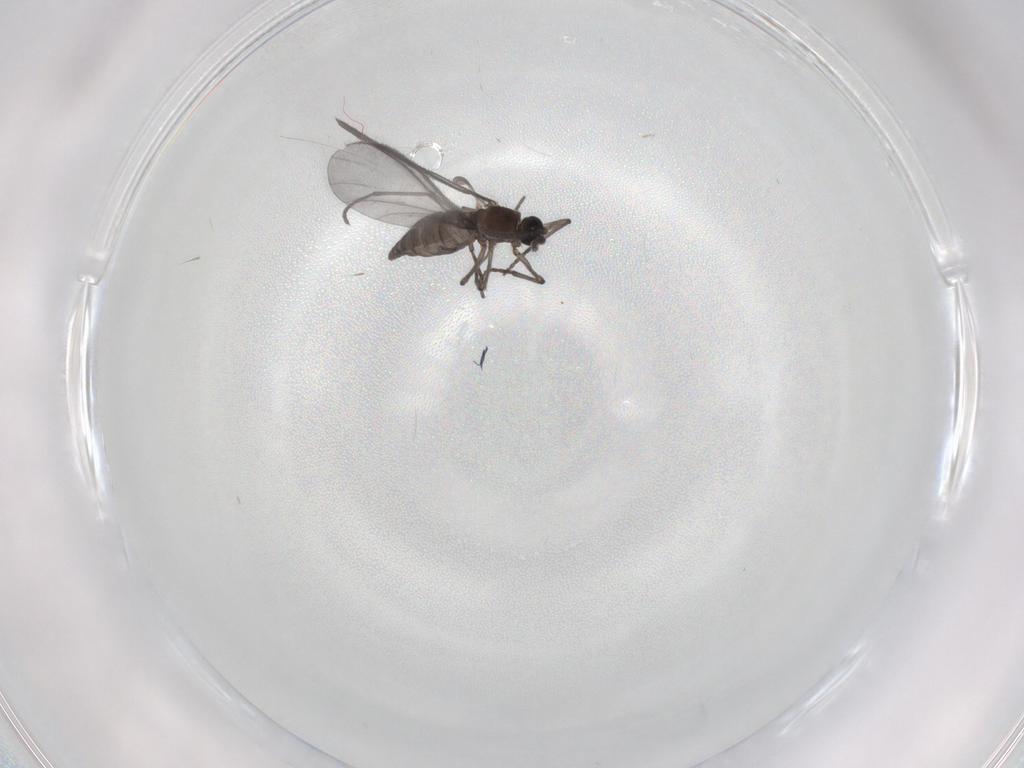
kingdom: Animalia
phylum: Arthropoda
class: Insecta
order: Diptera
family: Sciaridae
